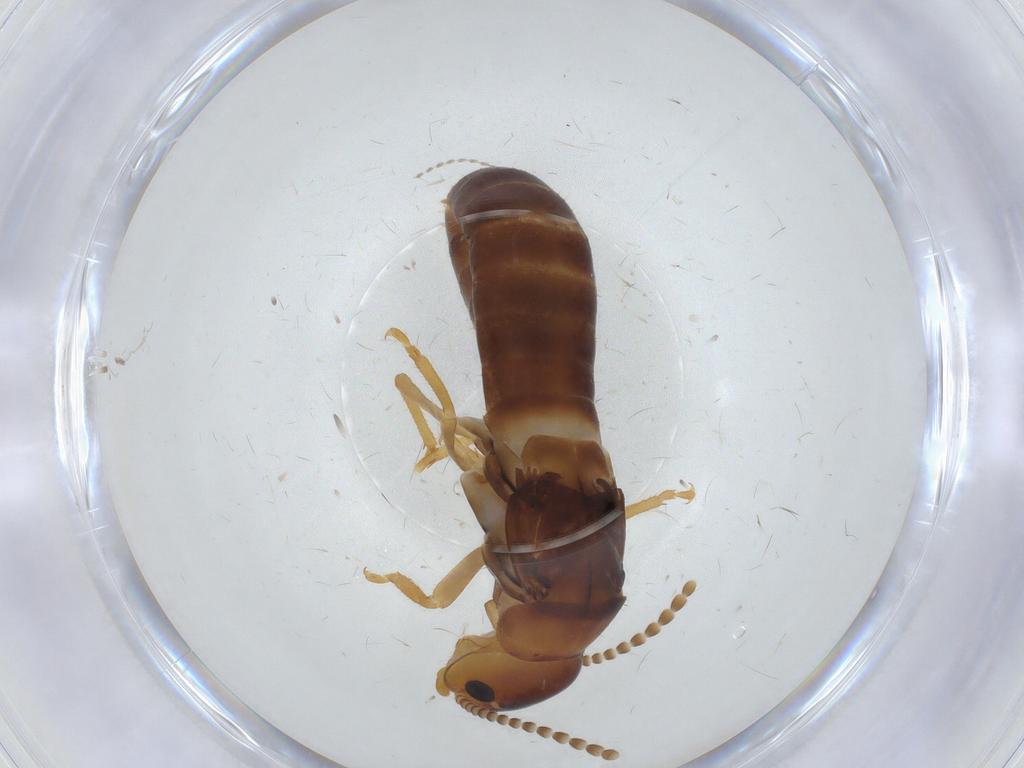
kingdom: Animalia
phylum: Arthropoda
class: Insecta
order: Blattodea
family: Kalotermitidae
